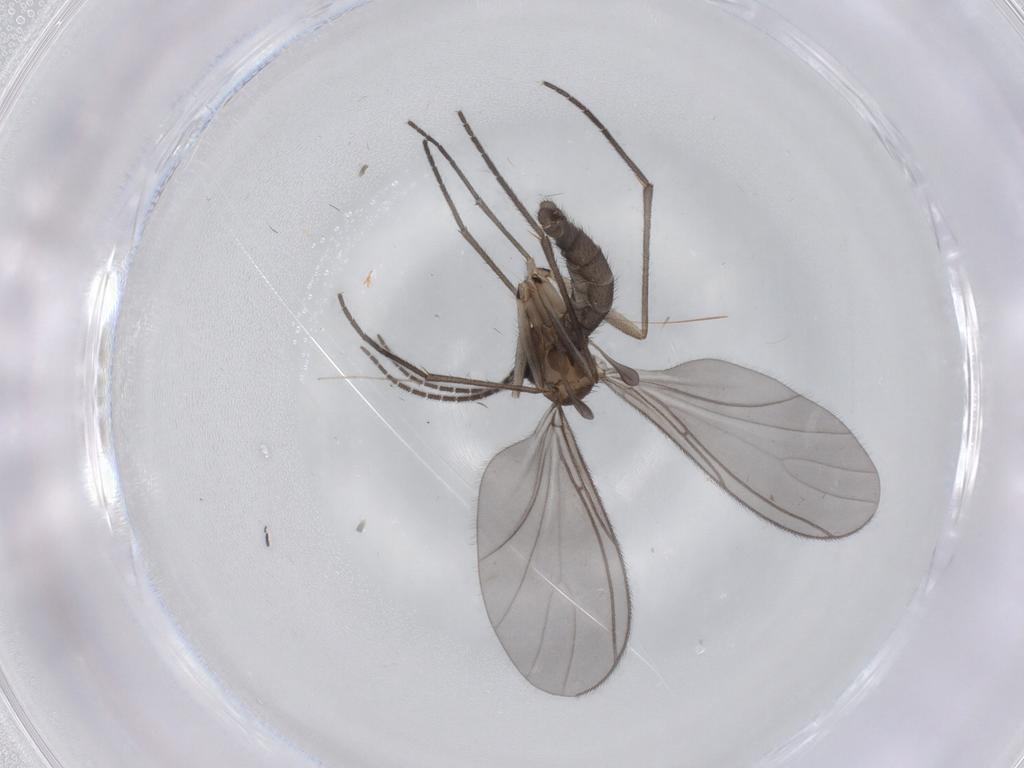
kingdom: Animalia
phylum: Arthropoda
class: Insecta
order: Diptera
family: Sciaridae
